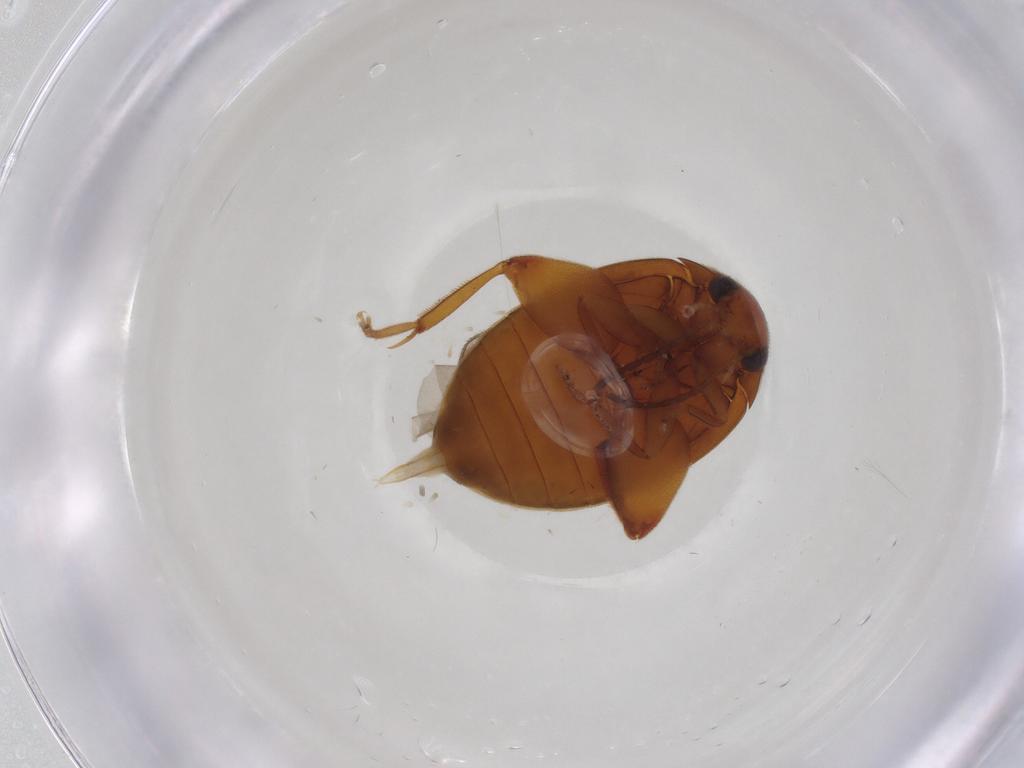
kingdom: Animalia
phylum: Arthropoda
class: Insecta
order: Coleoptera
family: Scirtidae
